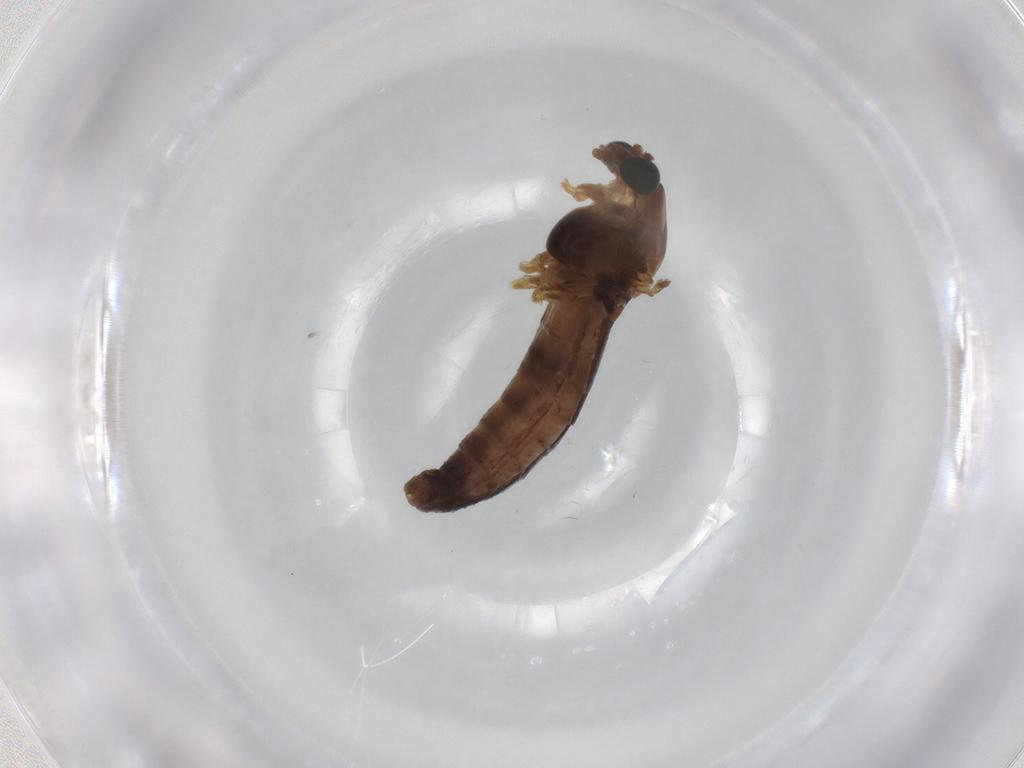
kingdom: Animalia
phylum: Arthropoda
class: Insecta
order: Diptera
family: Chironomidae
